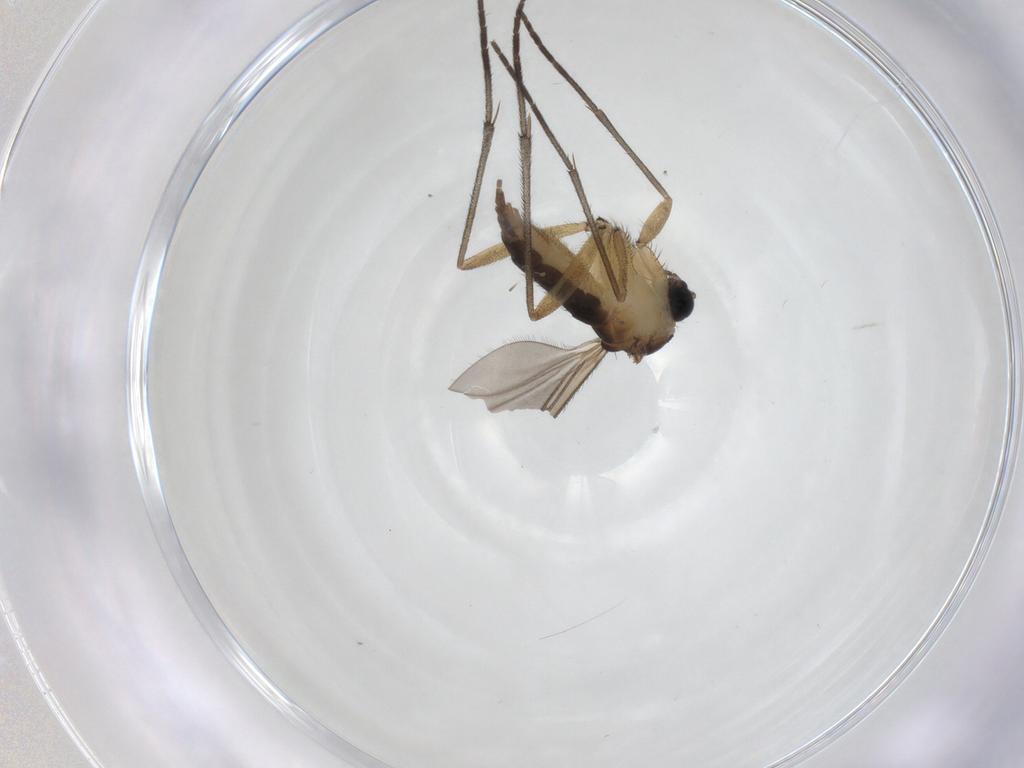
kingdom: Animalia
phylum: Arthropoda
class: Insecta
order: Diptera
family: Sciaridae
